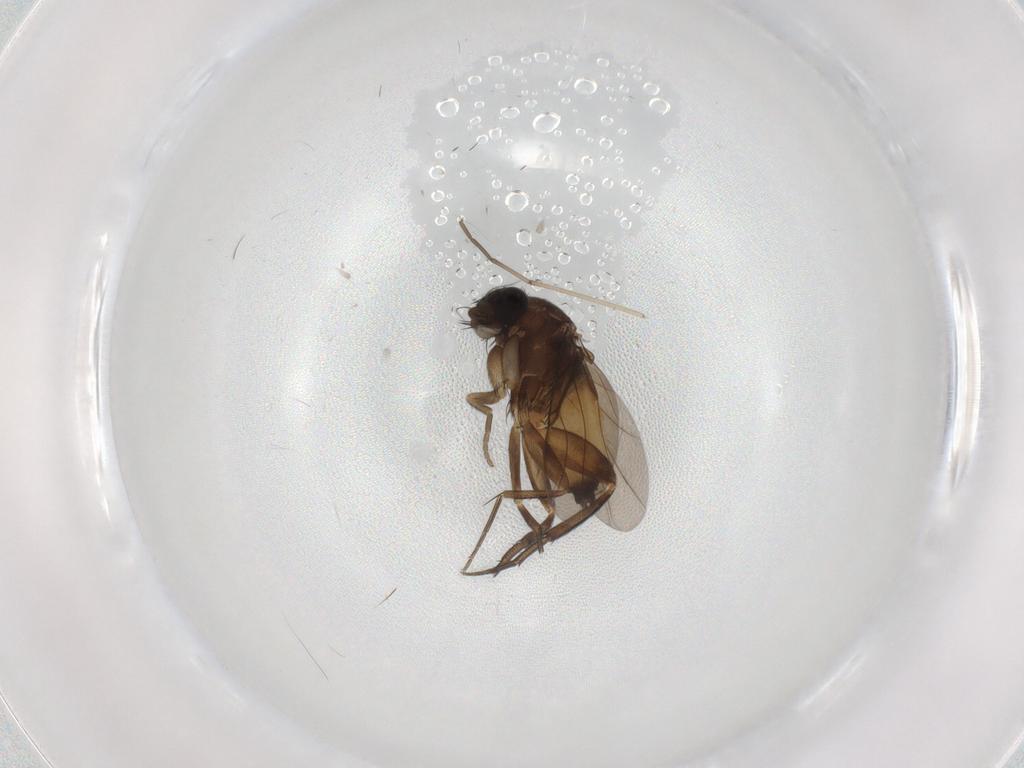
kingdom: Animalia
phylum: Arthropoda
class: Insecta
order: Diptera
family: Phoridae
